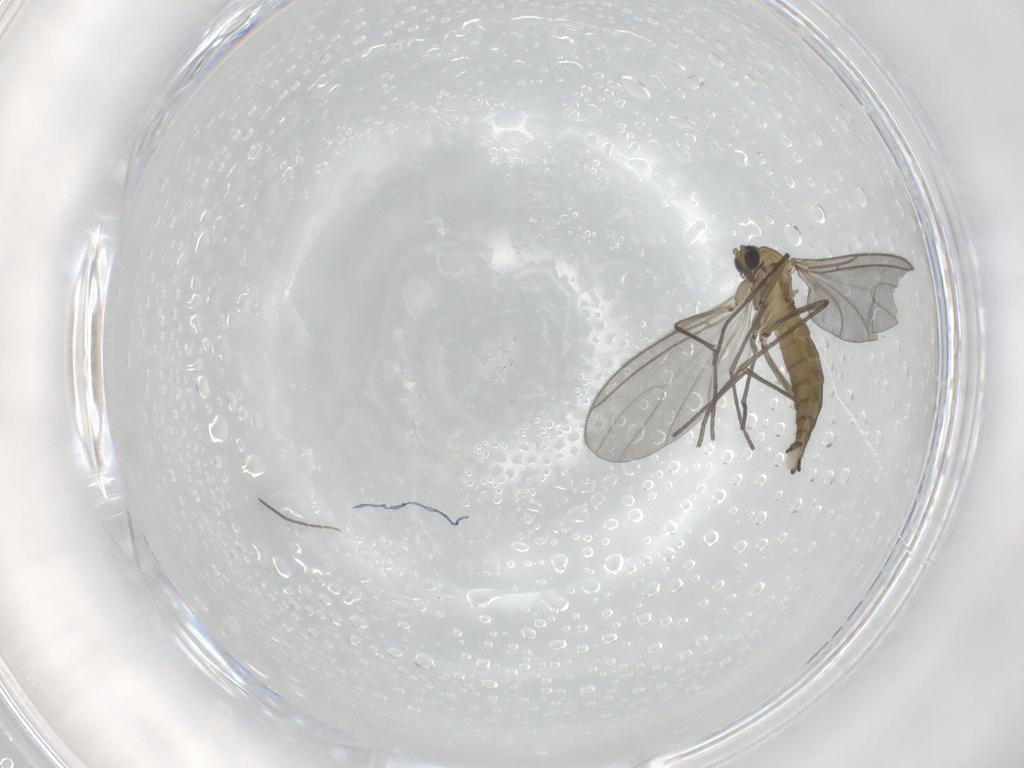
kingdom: Animalia
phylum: Arthropoda
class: Insecta
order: Diptera
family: Sciaridae
